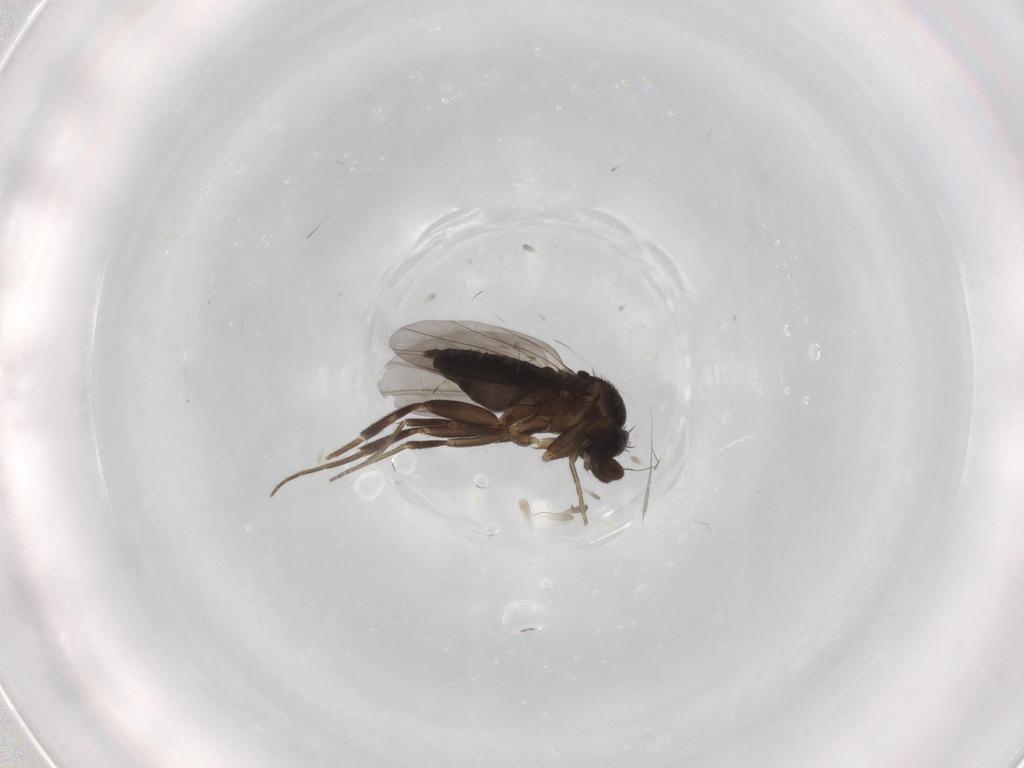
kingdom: Animalia
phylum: Arthropoda
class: Insecta
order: Diptera
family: Phoridae
